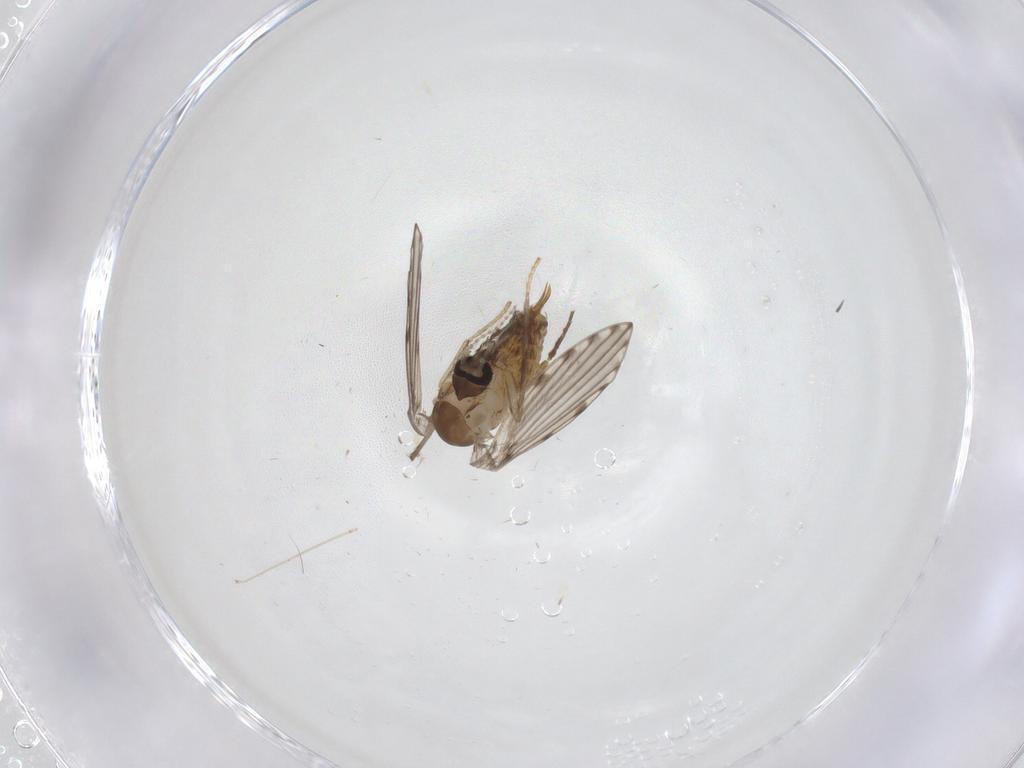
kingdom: Animalia
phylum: Arthropoda
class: Insecta
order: Diptera
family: Cecidomyiidae
